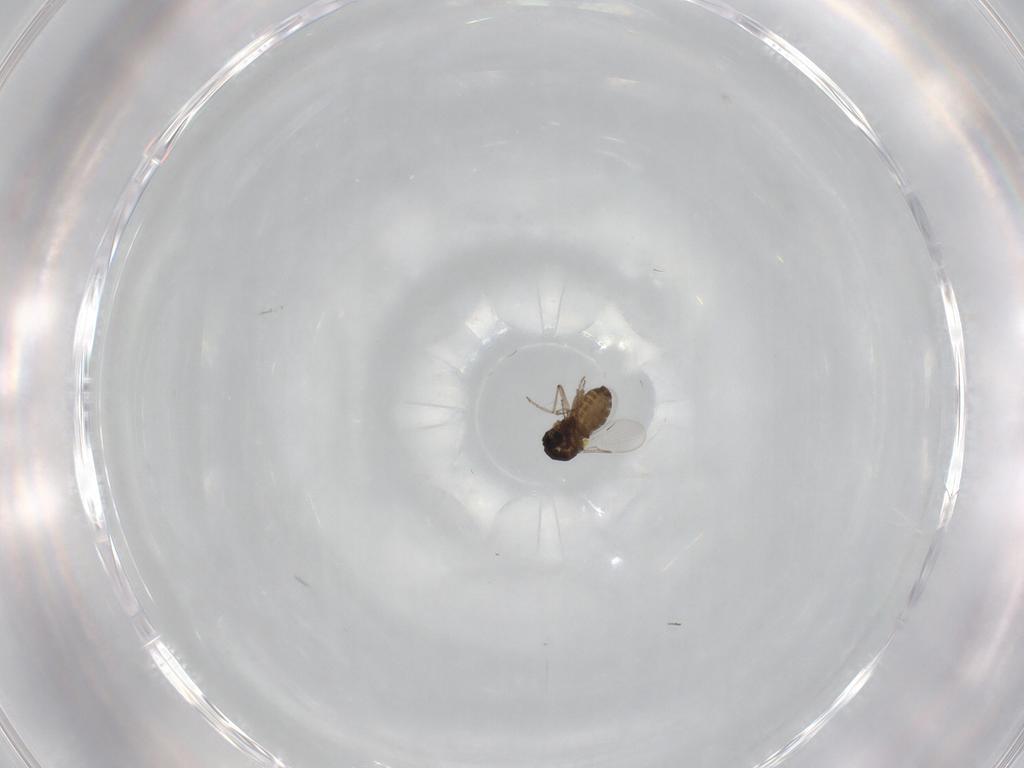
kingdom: Animalia
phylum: Arthropoda
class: Insecta
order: Diptera
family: Ceratopogonidae
